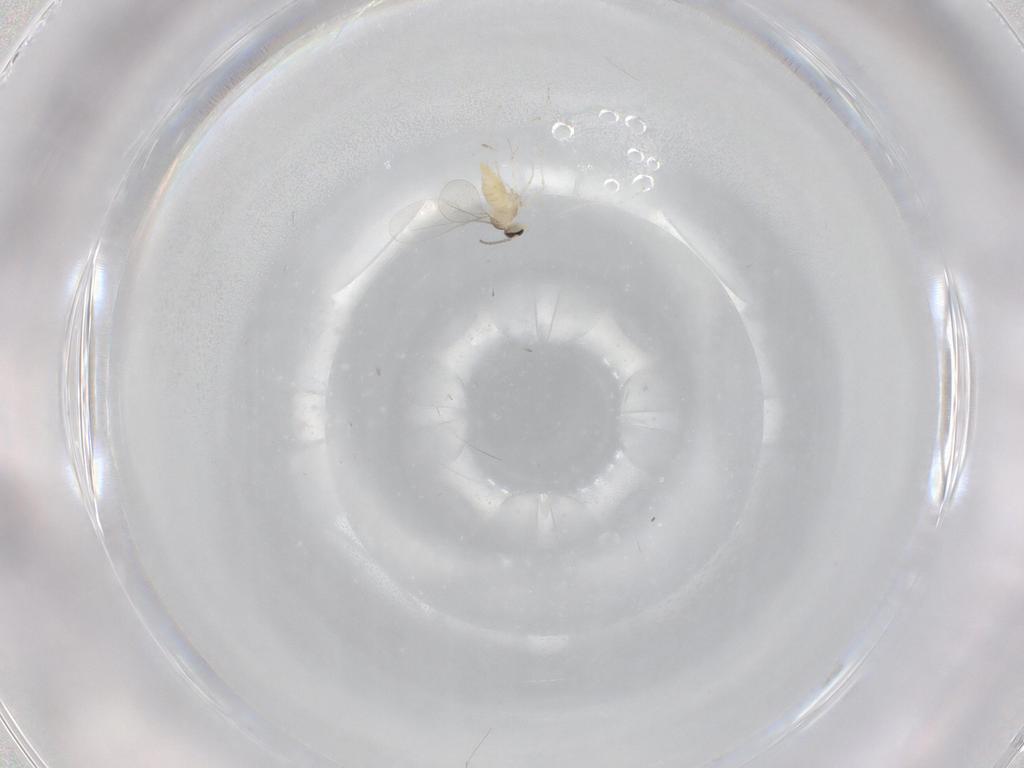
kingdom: Animalia
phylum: Arthropoda
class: Insecta
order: Diptera
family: Cecidomyiidae
